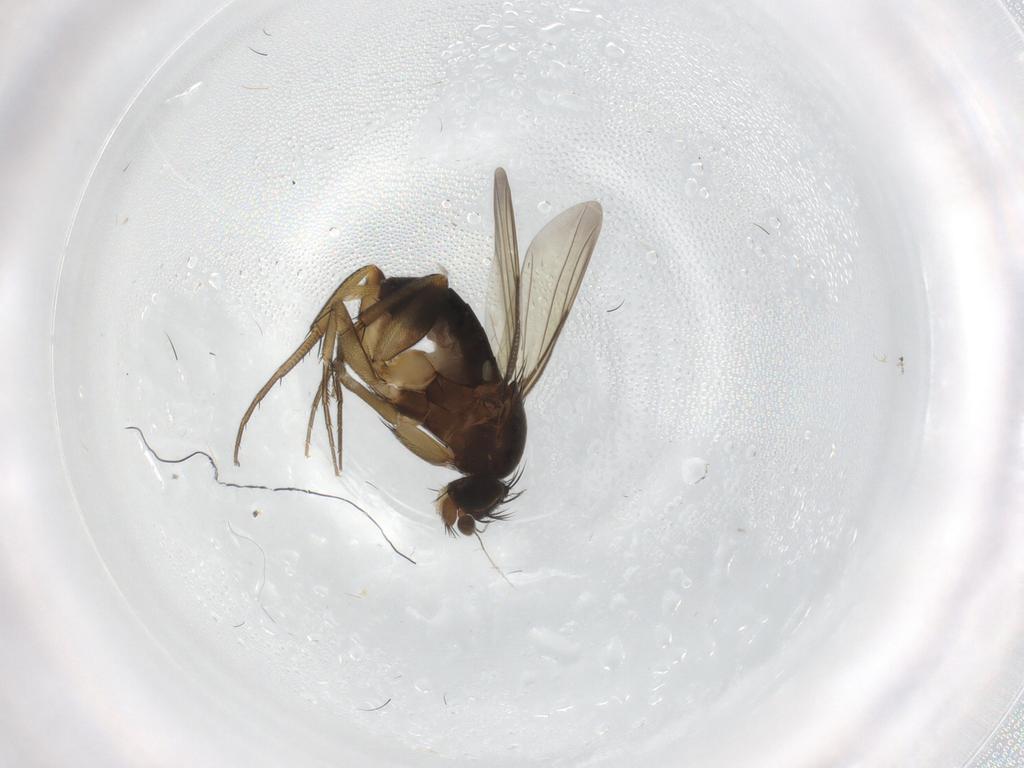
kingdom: Animalia
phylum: Arthropoda
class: Insecta
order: Diptera
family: Phoridae
